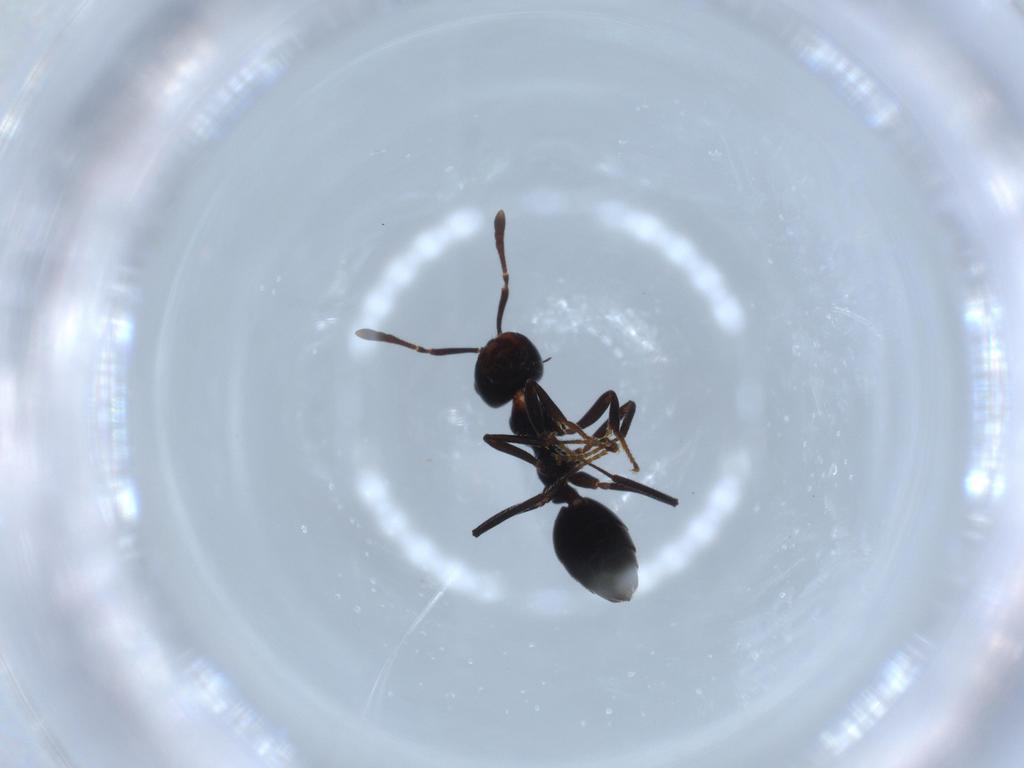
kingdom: Animalia
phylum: Arthropoda
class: Insecta
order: Hymenoptera
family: Formicidae
